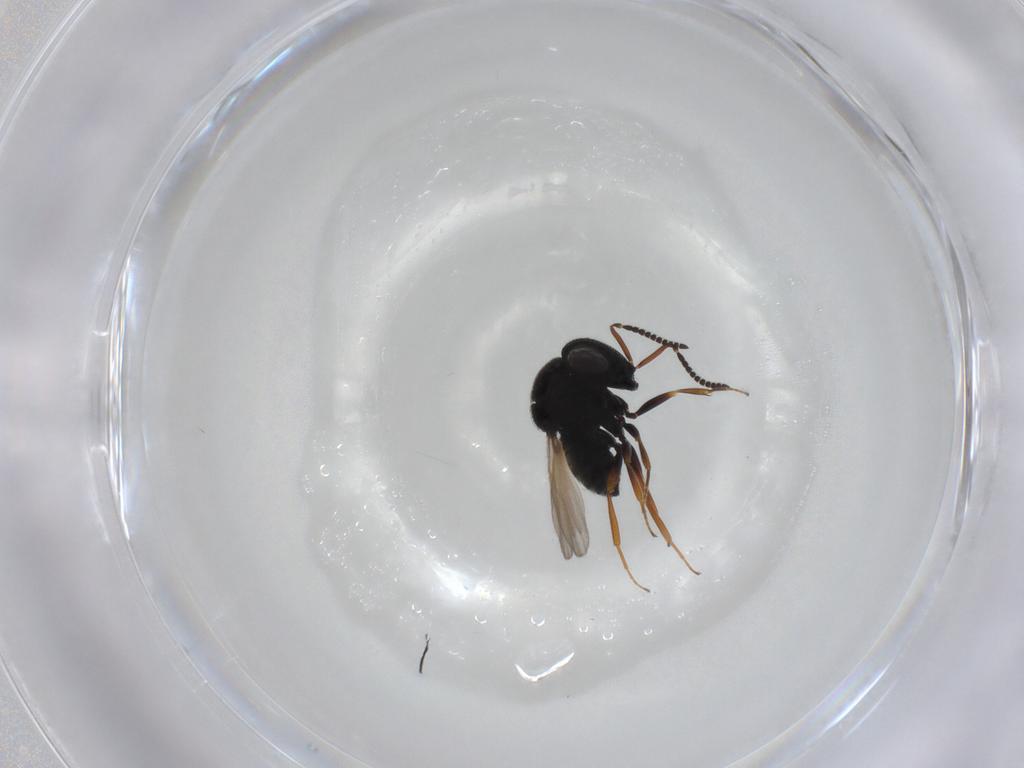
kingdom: Animalia
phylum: Arthropoda
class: Insecta
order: Hymenoptera
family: Scelionidae
